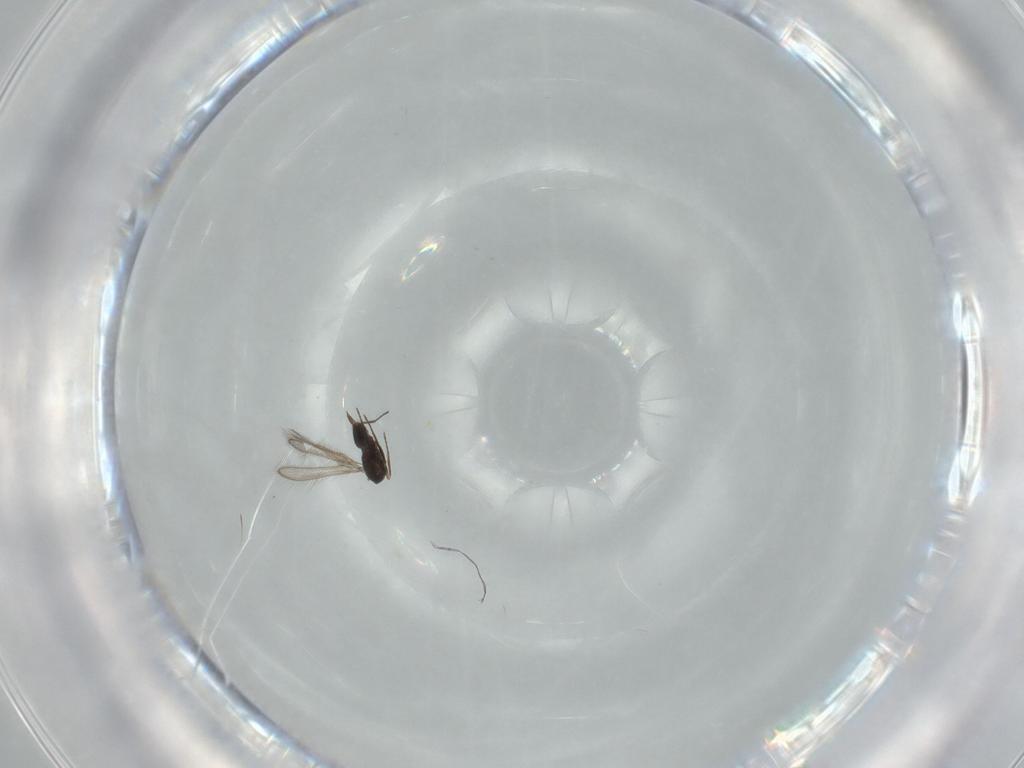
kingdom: Animalia
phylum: Arthropoda
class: Insecta
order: Hymenoptera
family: Mymaridae
